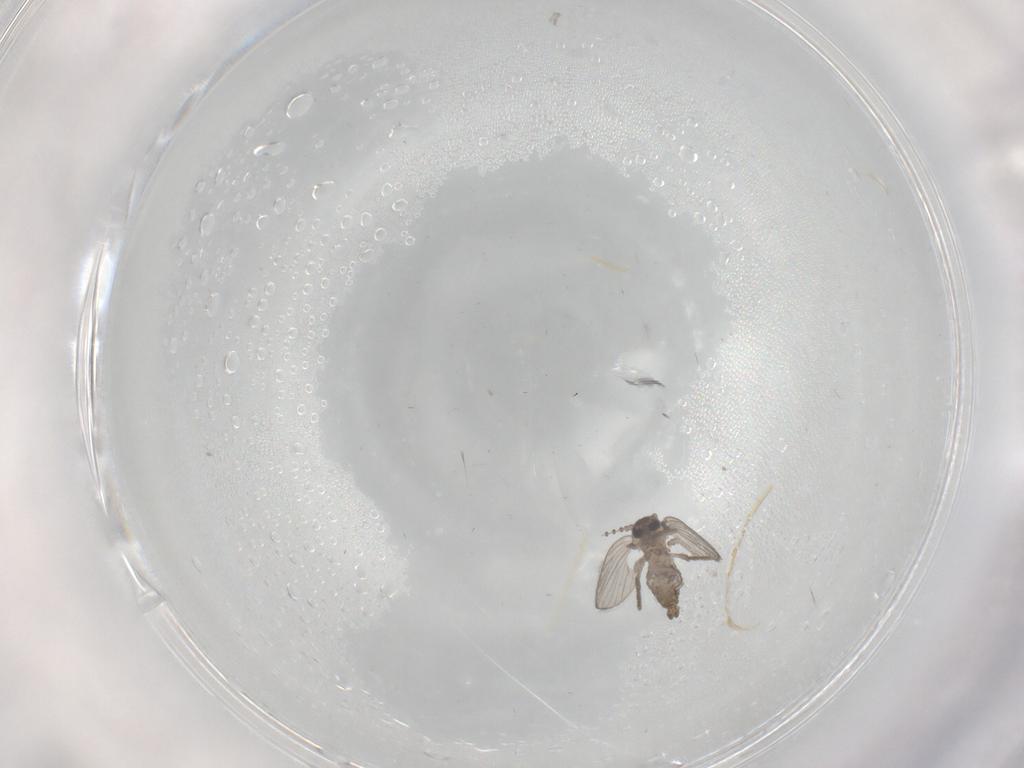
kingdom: Animalia
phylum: Arthropoda
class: Insecta
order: Diptera
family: Psychodidae
